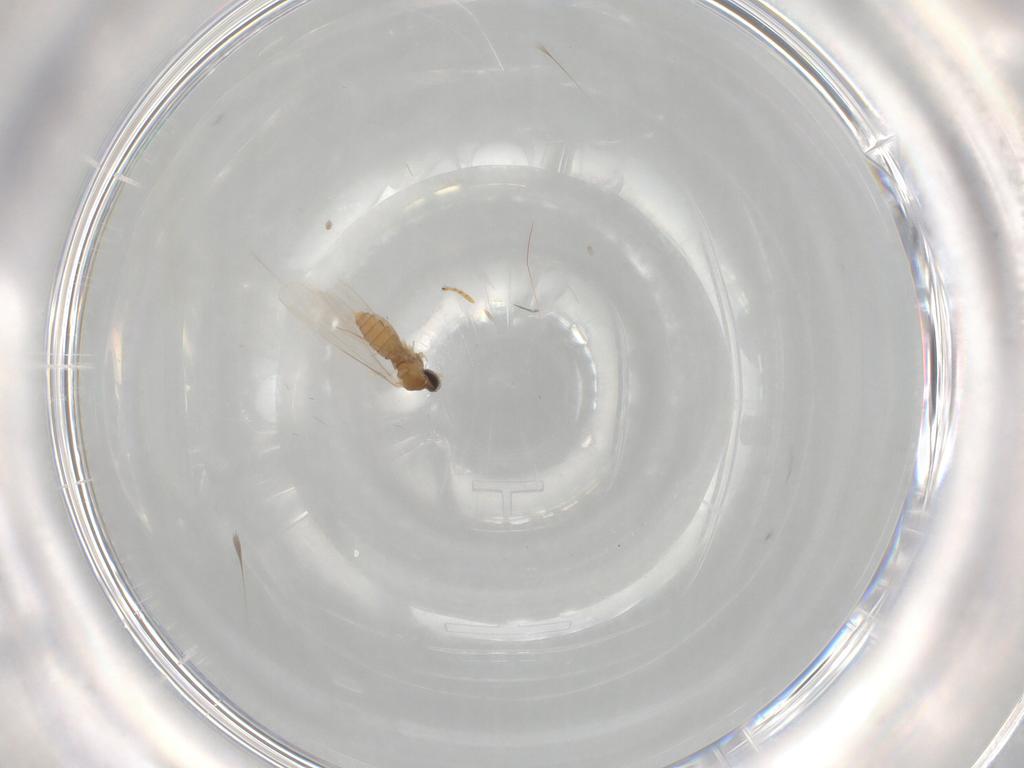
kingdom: Animalia
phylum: Arthropoda
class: Insecta
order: Diptera
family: Cecidomyiidae
